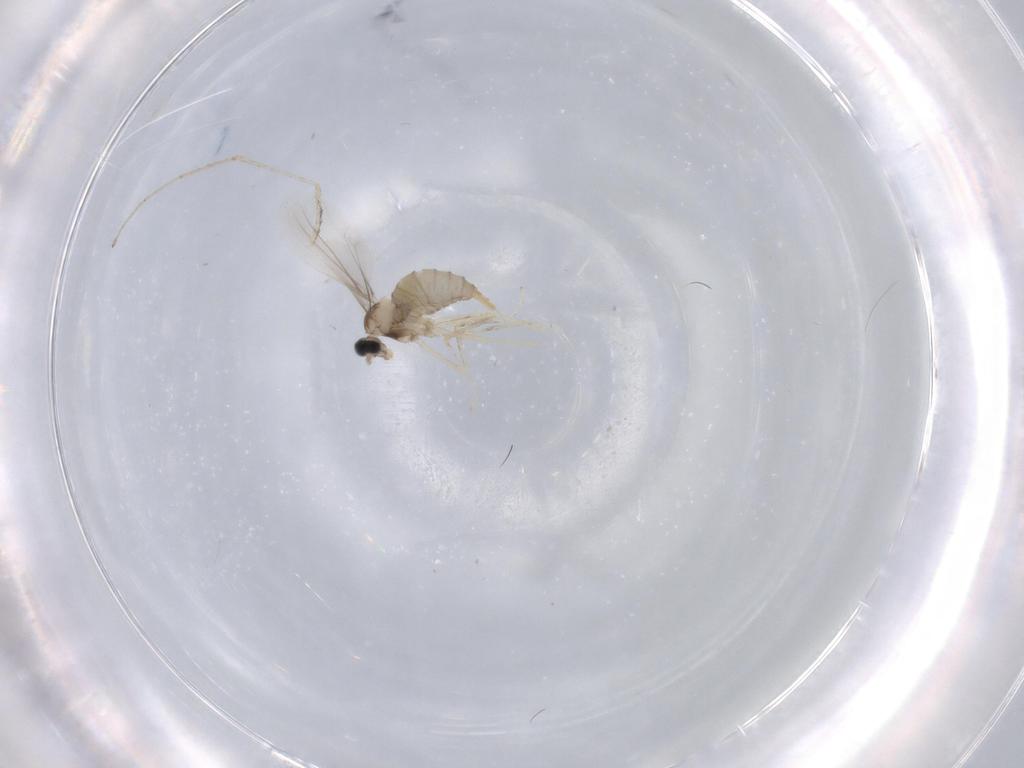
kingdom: Animalia
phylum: Arthropoda
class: Insecta
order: Diptera
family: Cecidomyiidae
